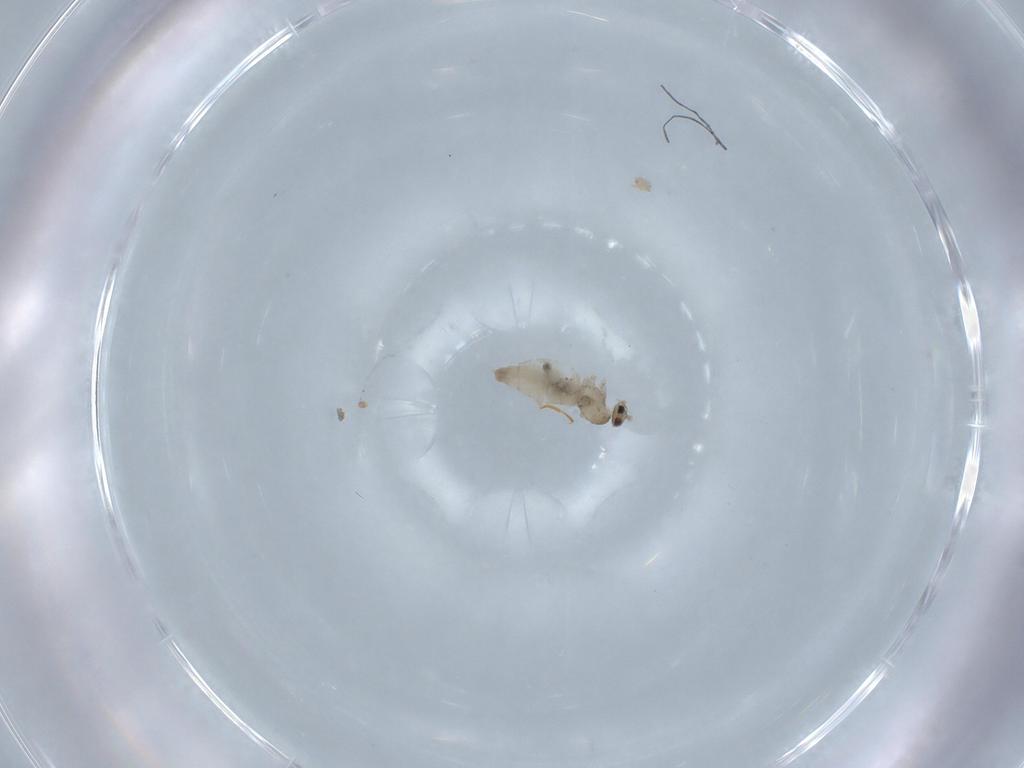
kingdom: Animalia
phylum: Arthropoda
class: Insecta
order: Diptera
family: Cecidomyiidae
